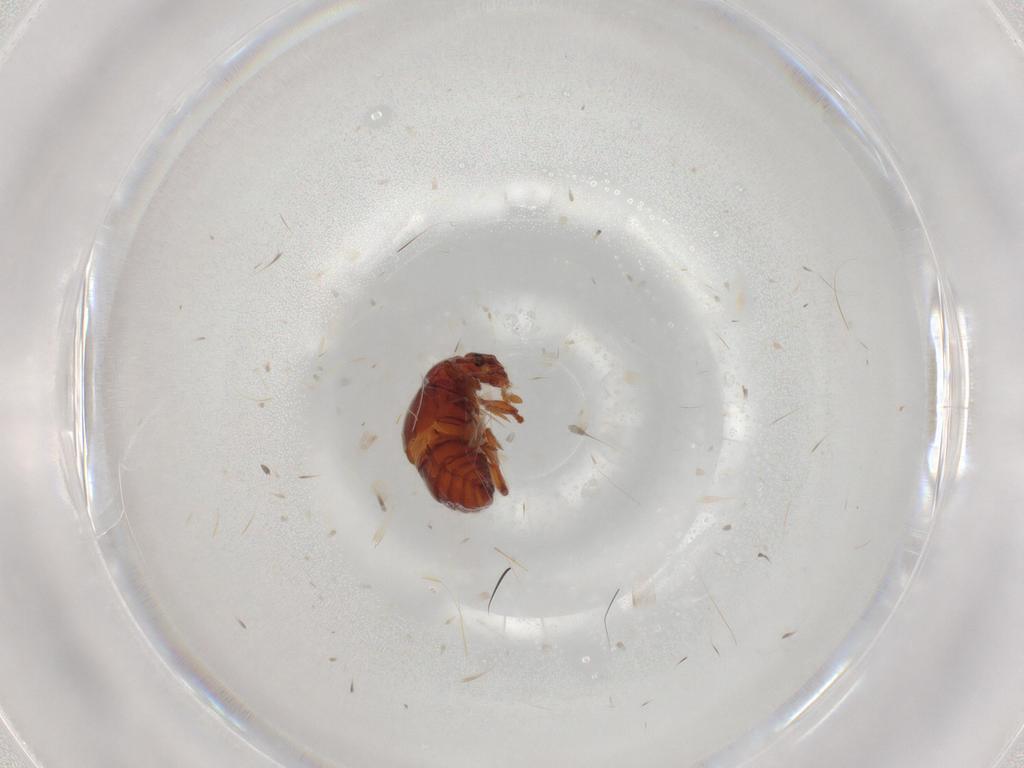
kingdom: Animalia
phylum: Arthropoda
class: Insecta
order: Coleoptera
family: Staphylinidae
